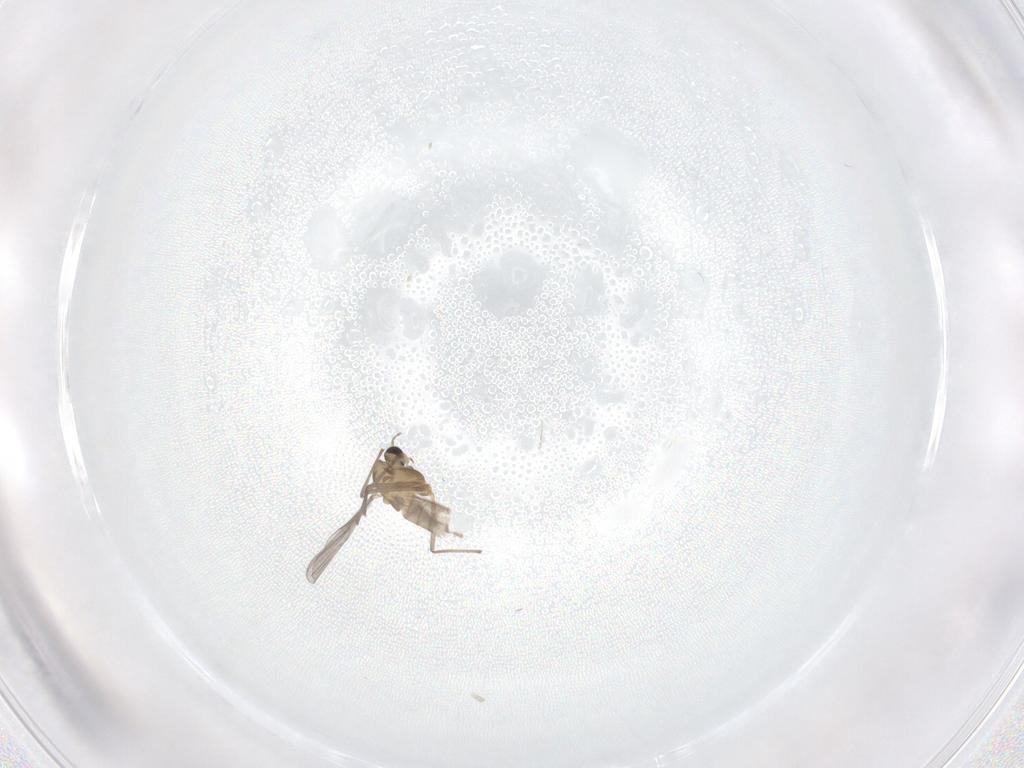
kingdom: Animalia
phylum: Arthropoda
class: Insecta
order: Diptera
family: Chironomidae
